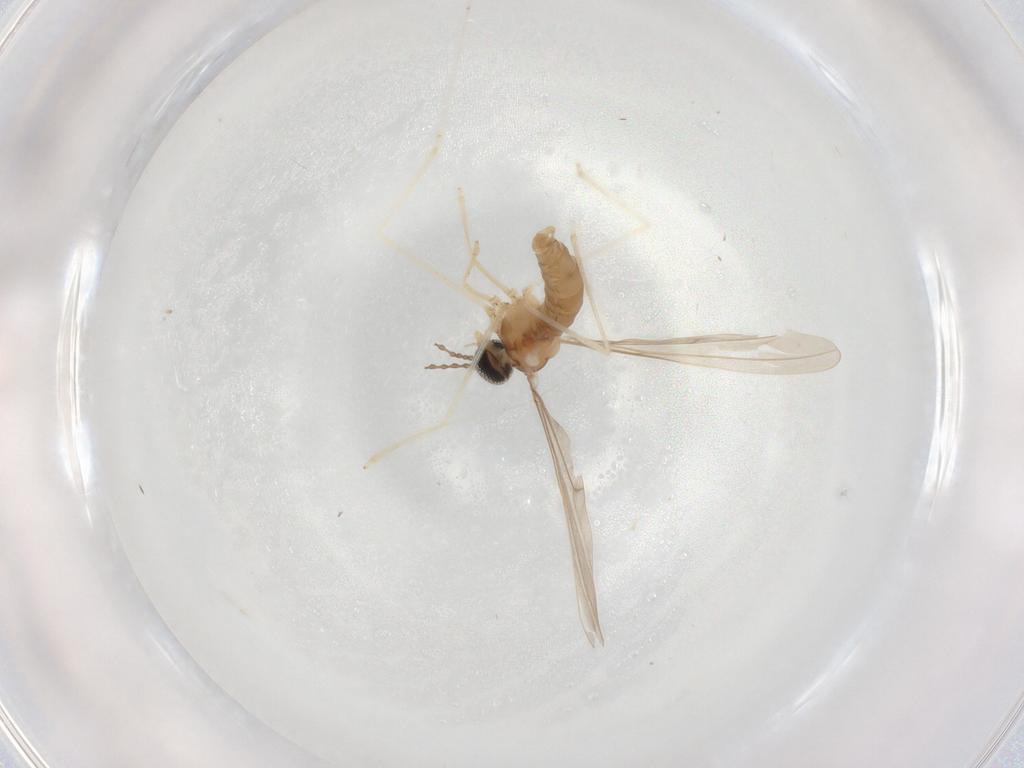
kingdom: Animalia
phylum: Arthropoda
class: Insecta
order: Diptera
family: Cecidomyiidae
